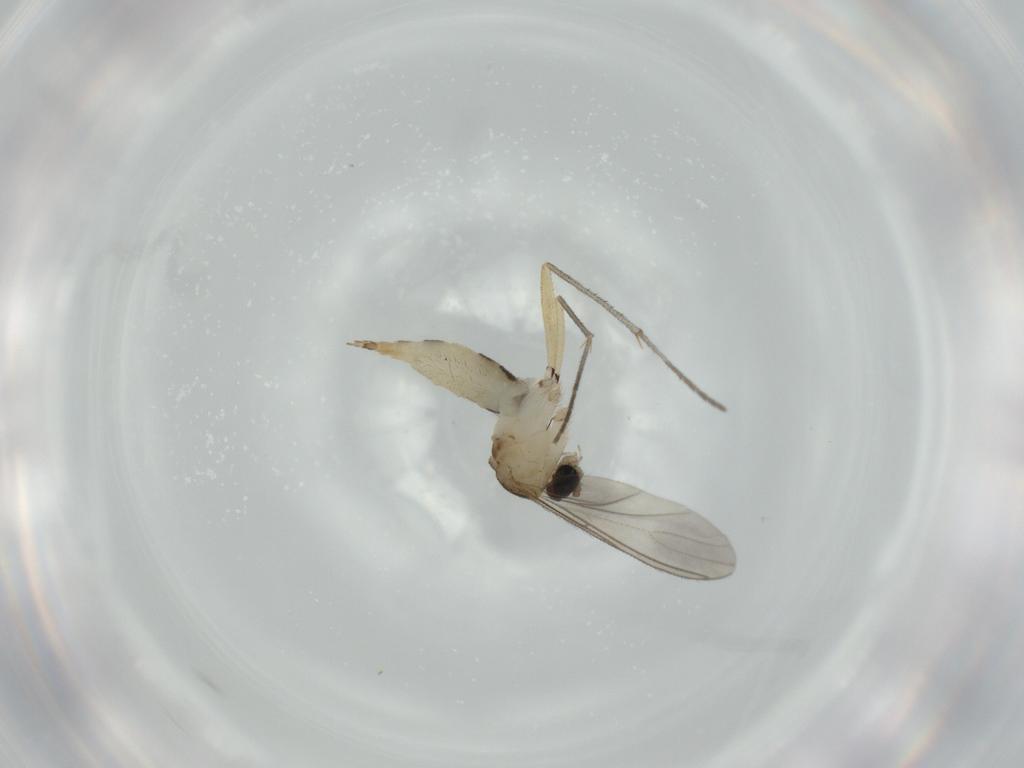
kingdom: Animalia
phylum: Arthropoda
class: Insecta
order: Diptera
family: Sciaridae
